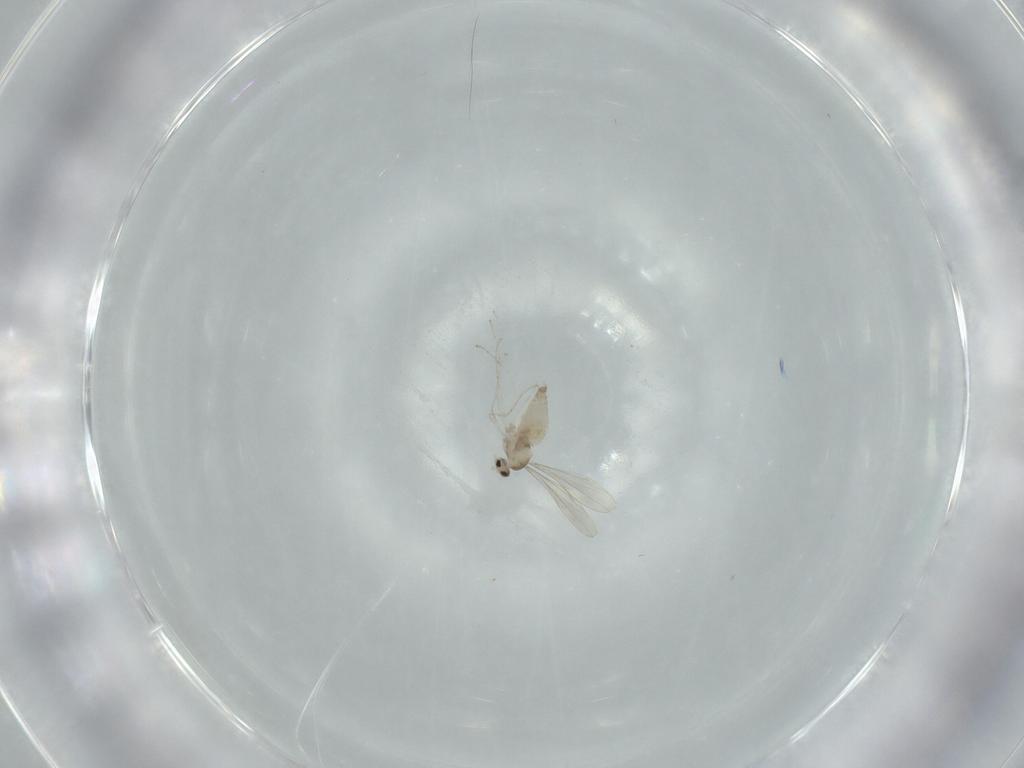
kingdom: Animalia
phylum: Arthropoda
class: Insecta
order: Diptera
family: Cecidomyiidae
